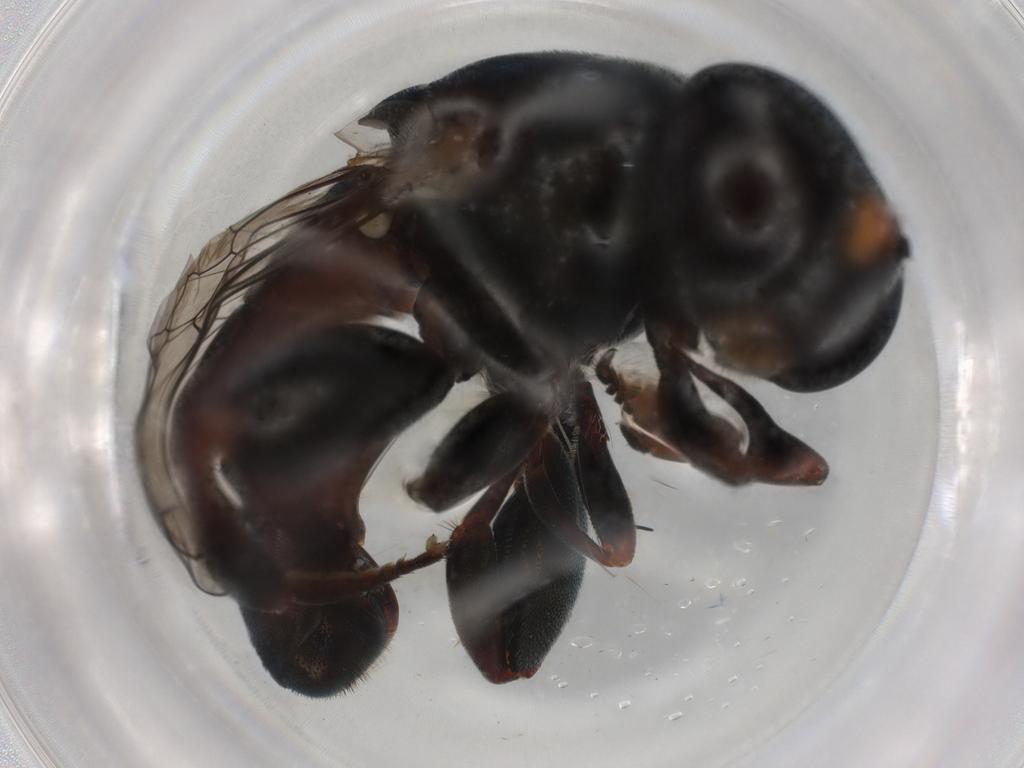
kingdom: Animalia
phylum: Arthropoda
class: Insecta
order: Diptera
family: Syrphidae
